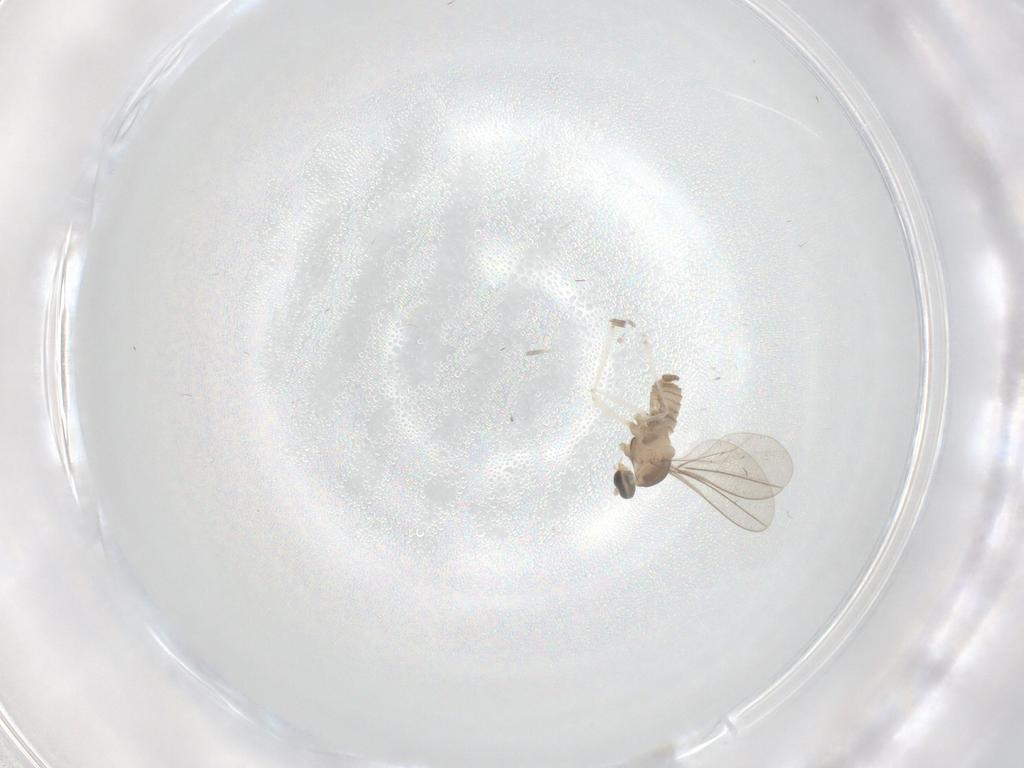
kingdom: Animalia
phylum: Arthropoda
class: Insecta
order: Diptera
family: Cecidomyiidae
